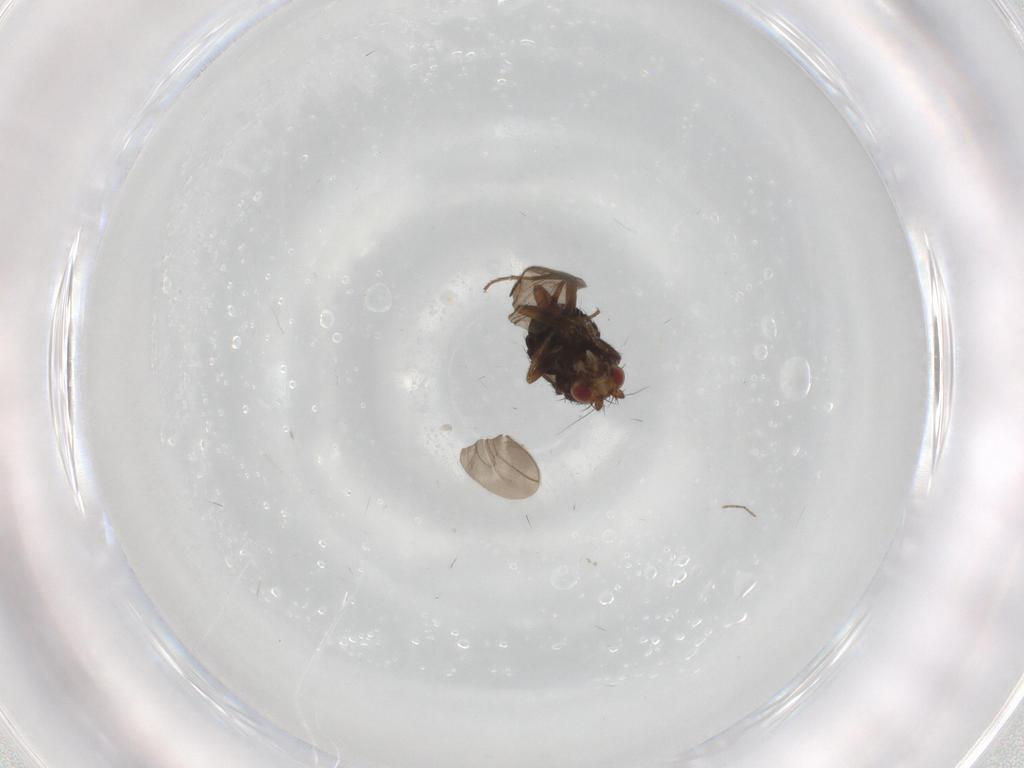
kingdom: Animalia
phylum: Arthropoda
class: Insecta
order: Diptera
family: Sphaeroceridae
